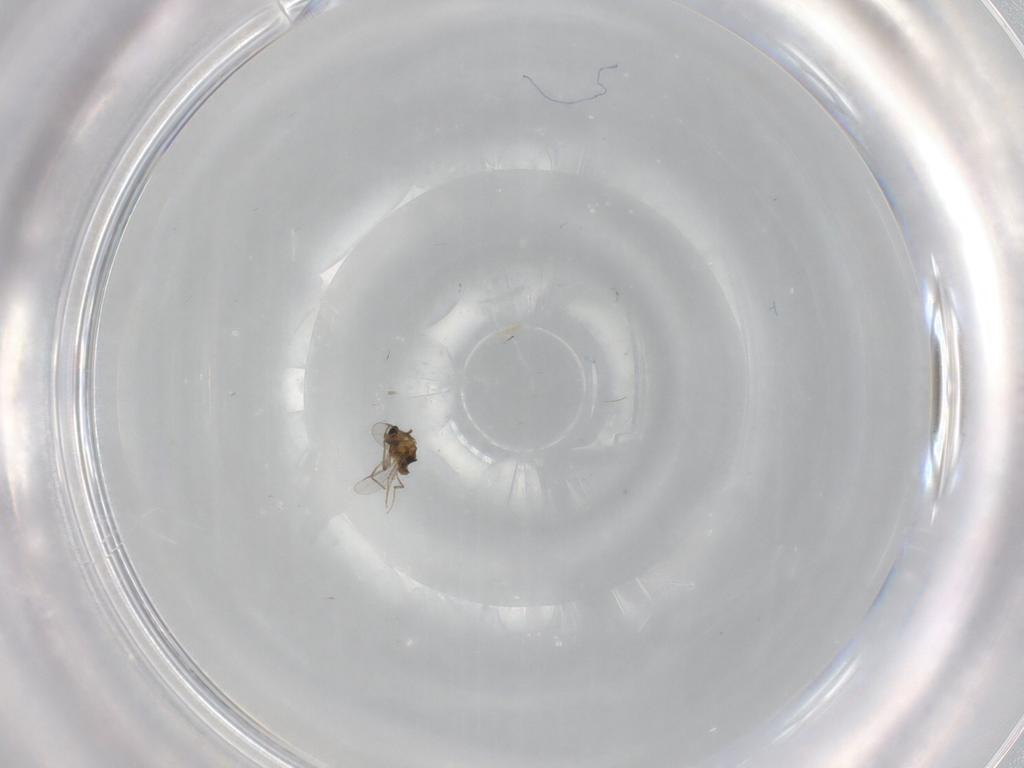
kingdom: Animalia
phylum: Arthropoda
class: Insecta
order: Diptera
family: Chironomidae
